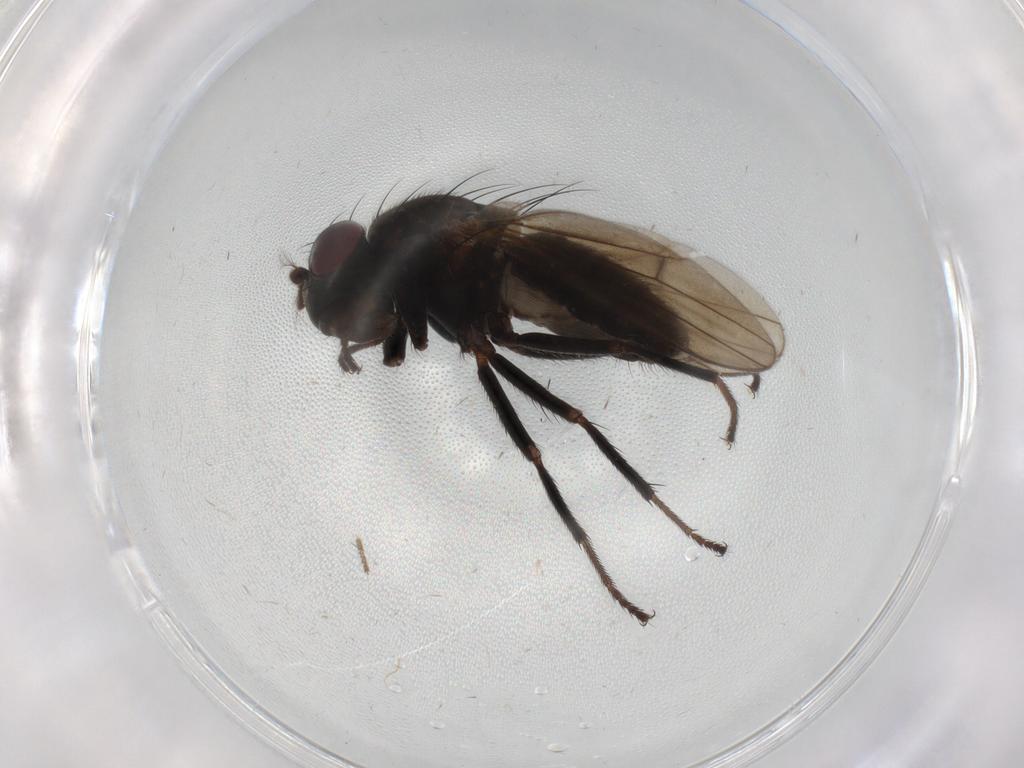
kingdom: Animalia
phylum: Arthropoda
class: Insecta
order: Diptera
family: Ephydridae
